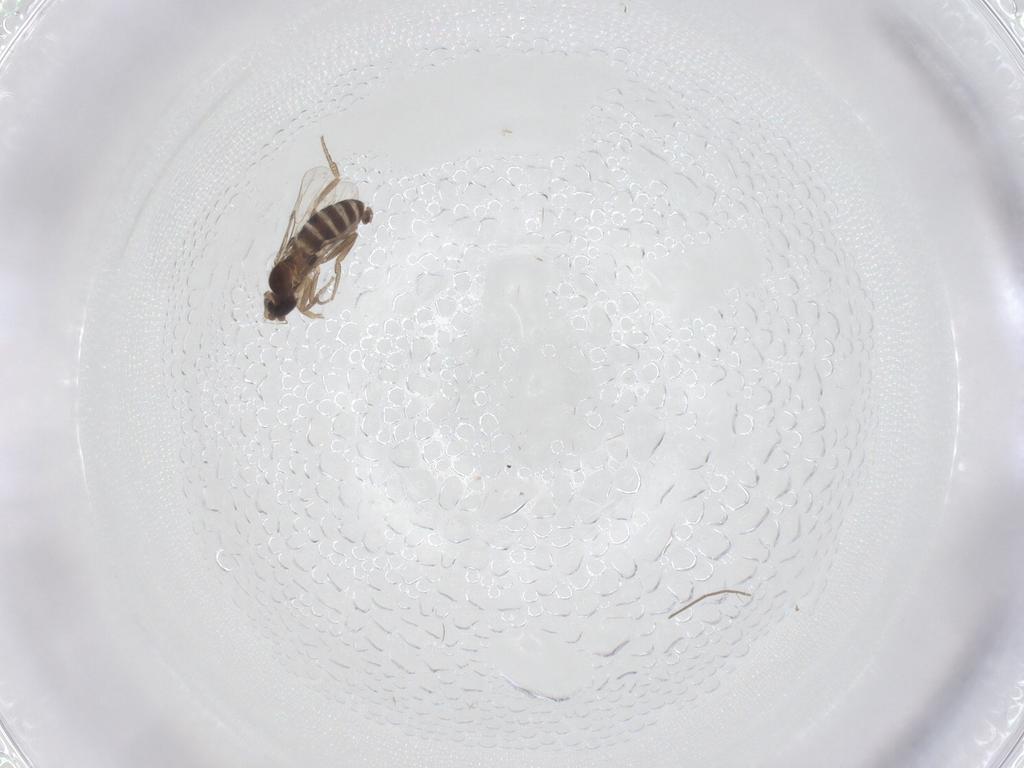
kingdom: Animalia
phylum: Arthropoda
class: Insecta
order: Diptera
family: Phoridae
